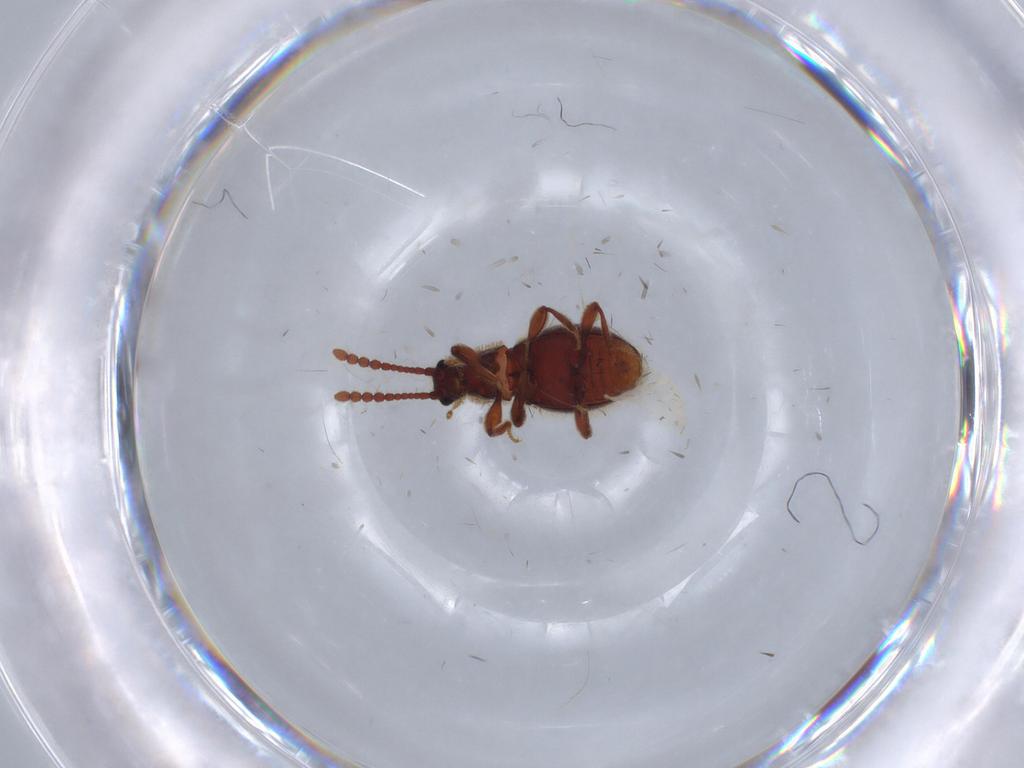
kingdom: Animalia
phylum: Arthropoda
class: Insecta
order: Coleoptera
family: Staphylinidae
